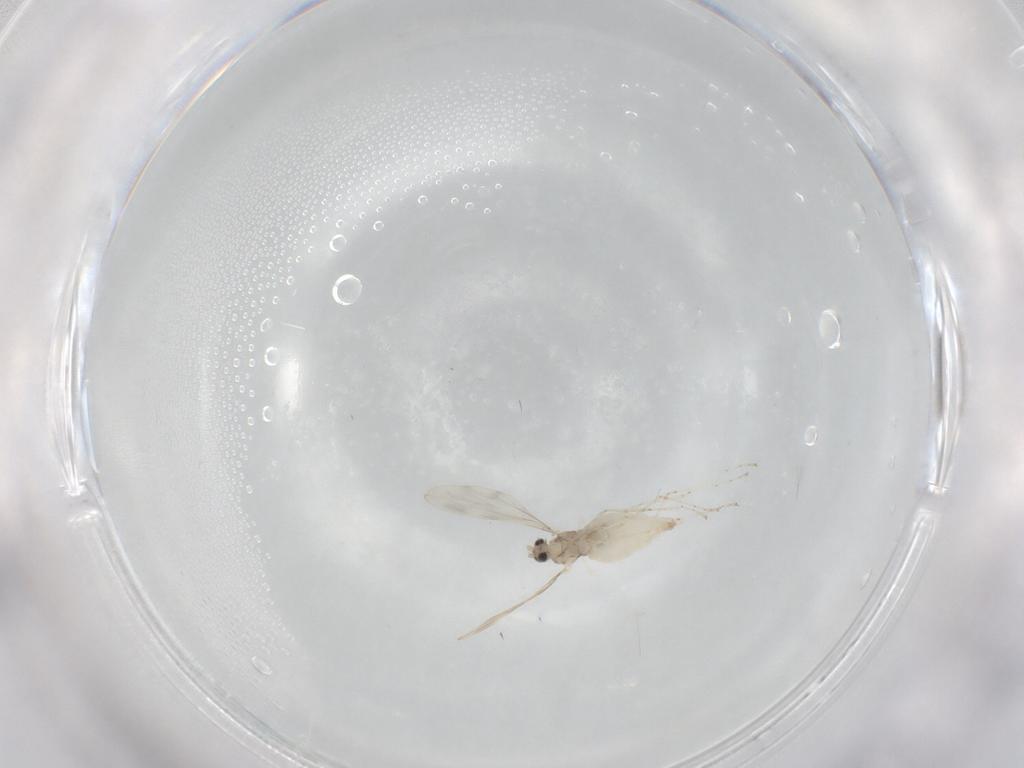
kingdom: Animalia
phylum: Arthropoda
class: Insecta
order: Diptera
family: Cecidomyiidae
